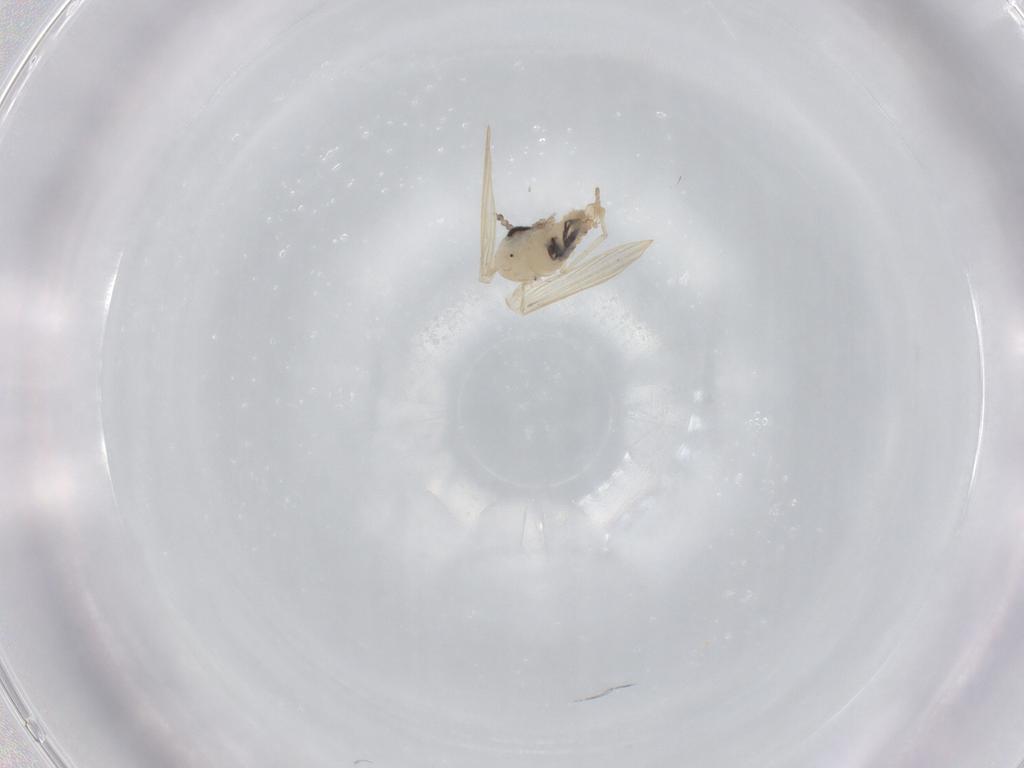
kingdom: Animalia
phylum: Arthropoda
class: Insecta
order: Diptera
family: Psychodidae
